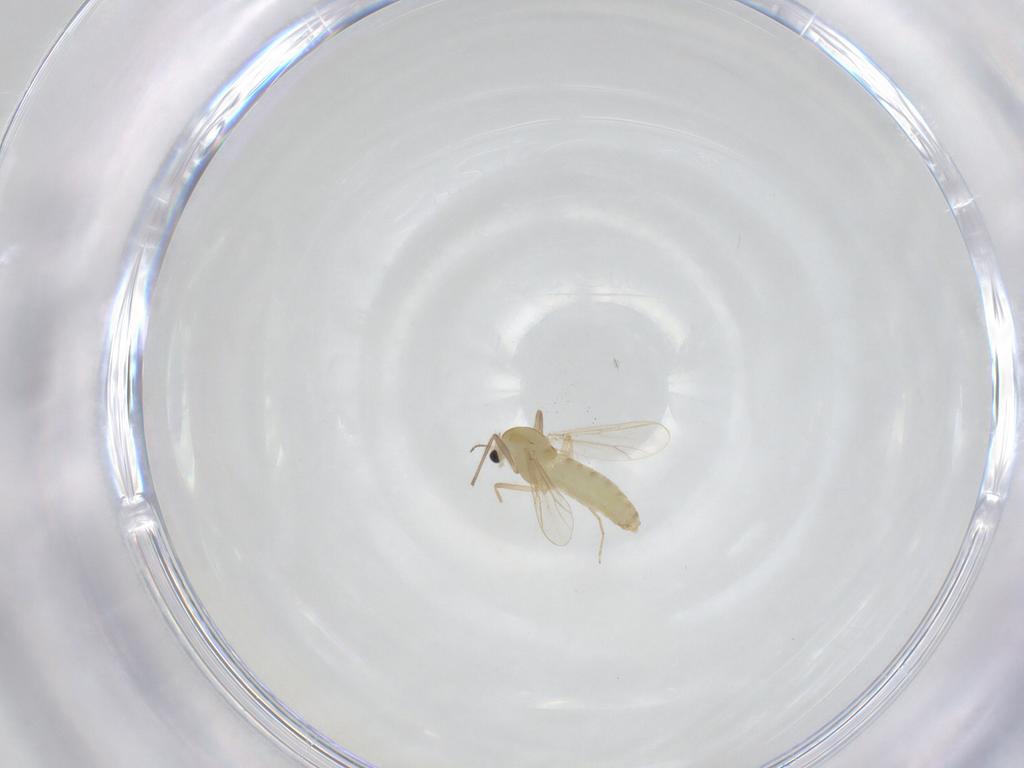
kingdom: Animalia
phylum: Arthropoda
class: Insecta
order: Diptera
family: Chironomidae
